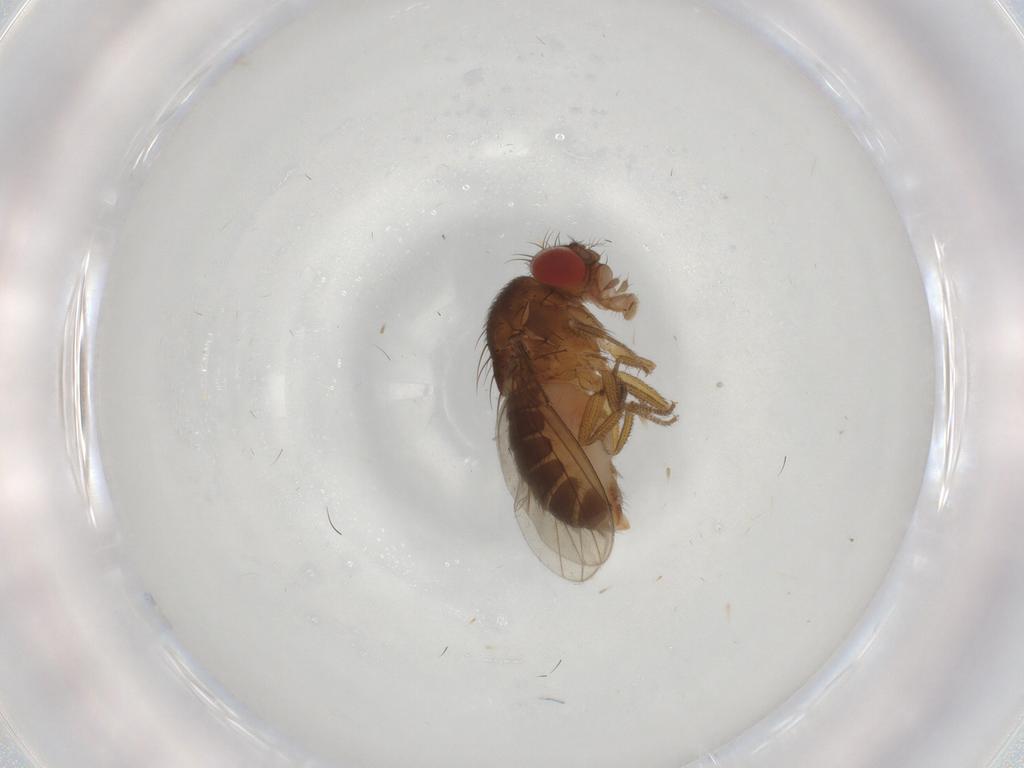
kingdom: Animalia
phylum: Arthropoda
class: Insecta
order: Diptera
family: Drosophilidae
